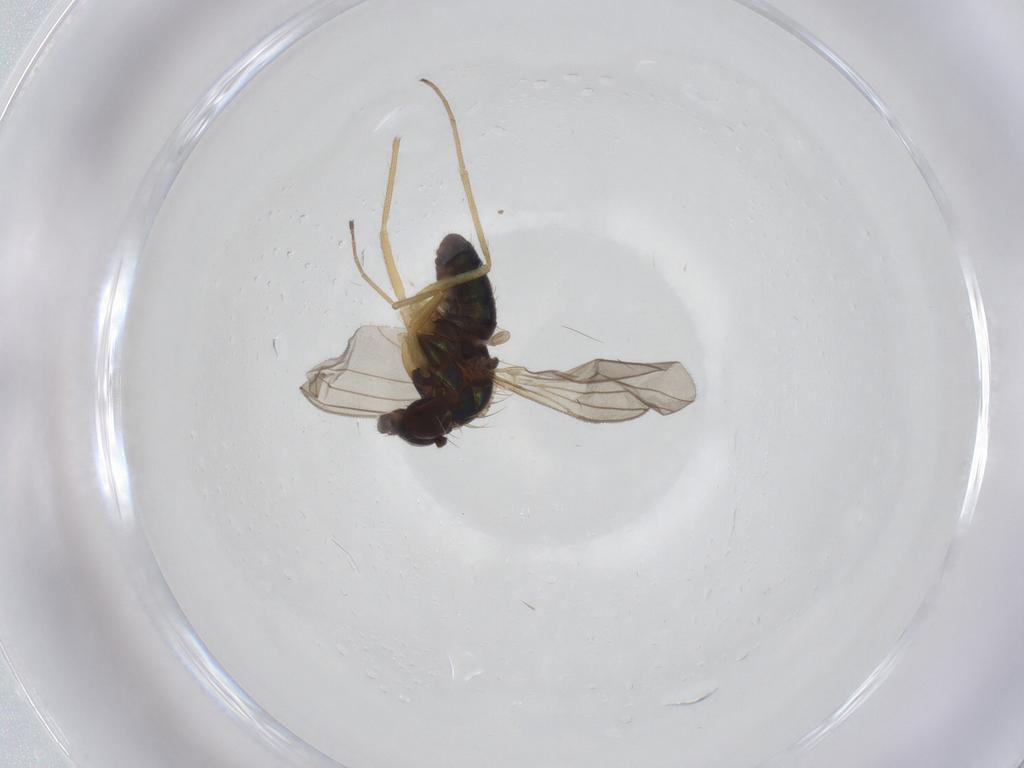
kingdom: Animalia
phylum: Arthropoda
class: Insecta
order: Diptera
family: Dolichopodidae
